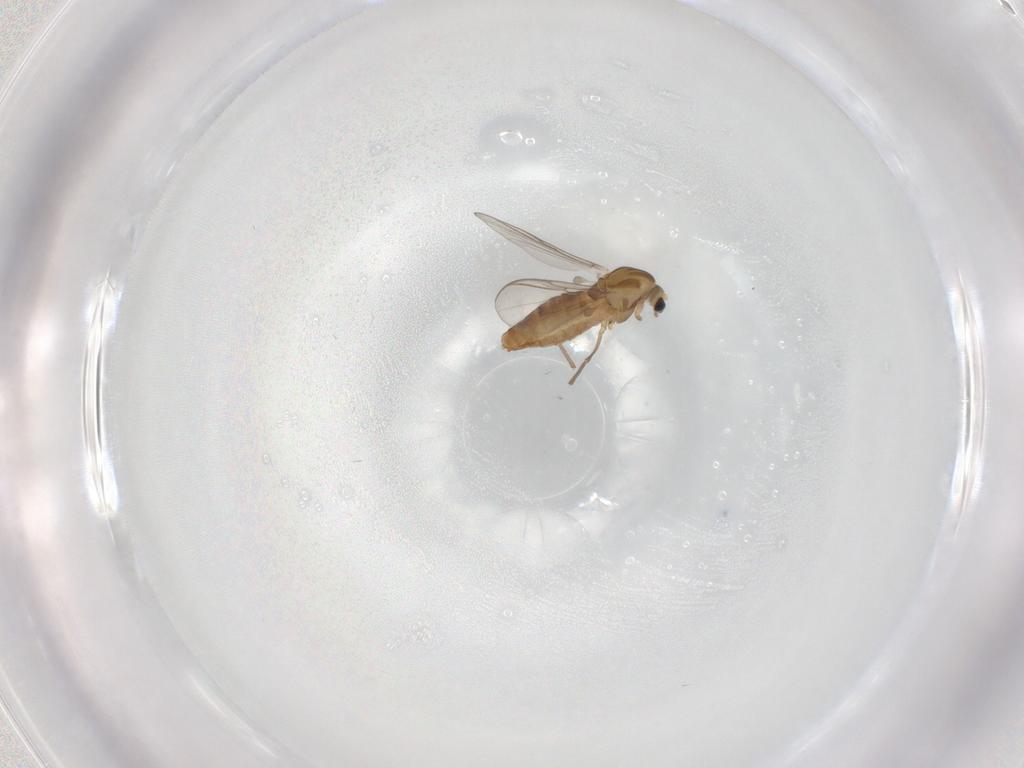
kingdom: Animalia
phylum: Arthropoda
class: Insecta
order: Diptera
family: Chironomidae
